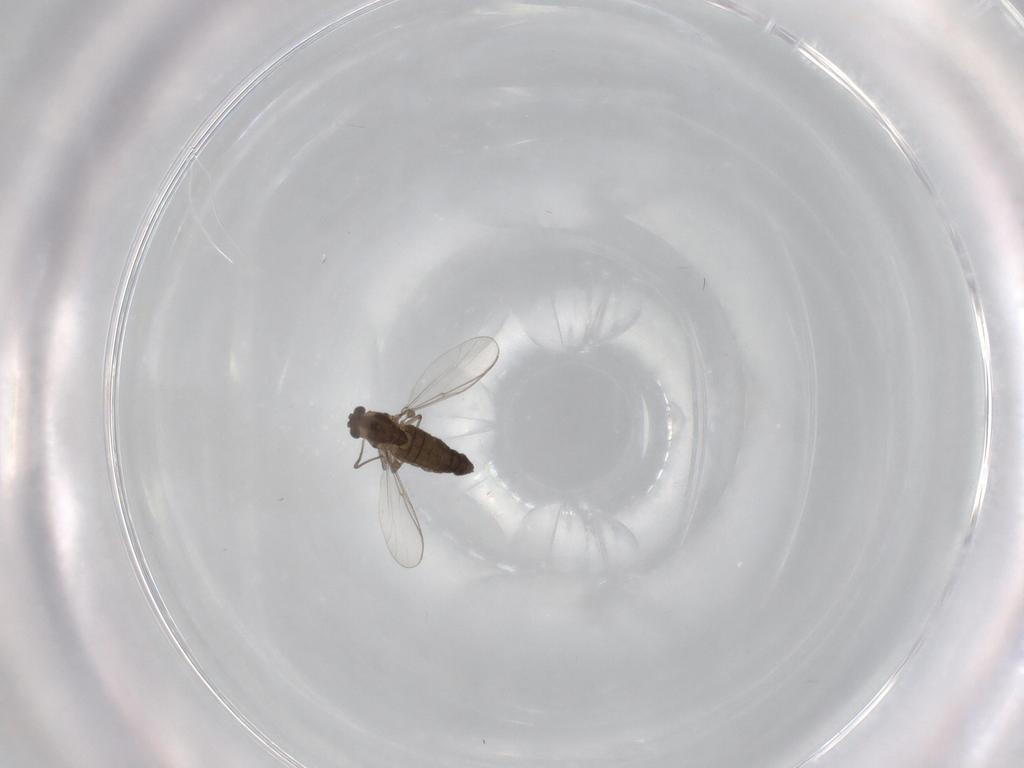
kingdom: Animalia
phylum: Arthropoda
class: Insecta
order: Diptera
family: Chironomidae
